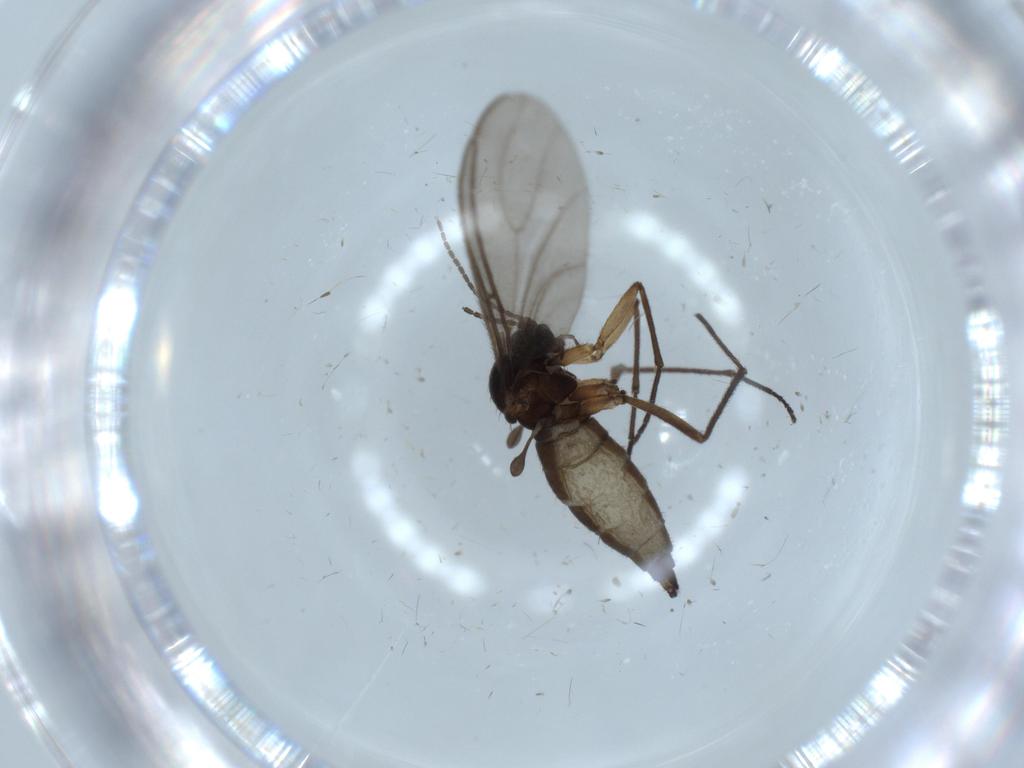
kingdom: Animalia
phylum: Arthropoda
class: Insecta
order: Diptera
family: Sciaridae
